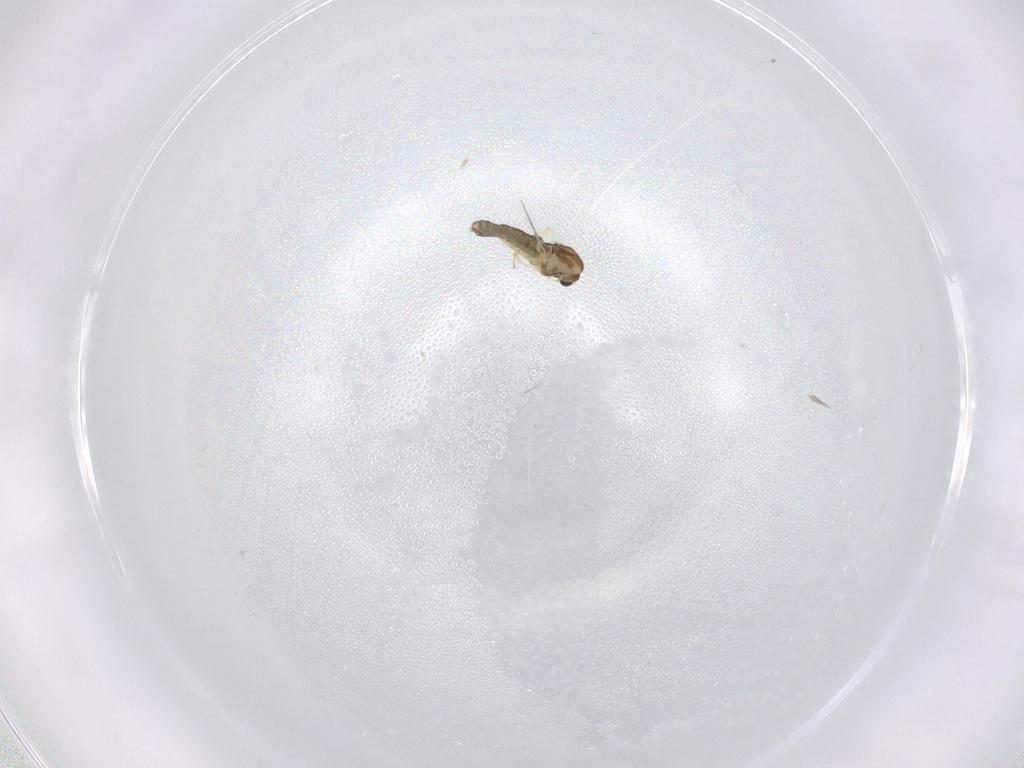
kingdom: Animalia
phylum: Arthropoda
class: Insecta
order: Diptera
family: Chironomidae
